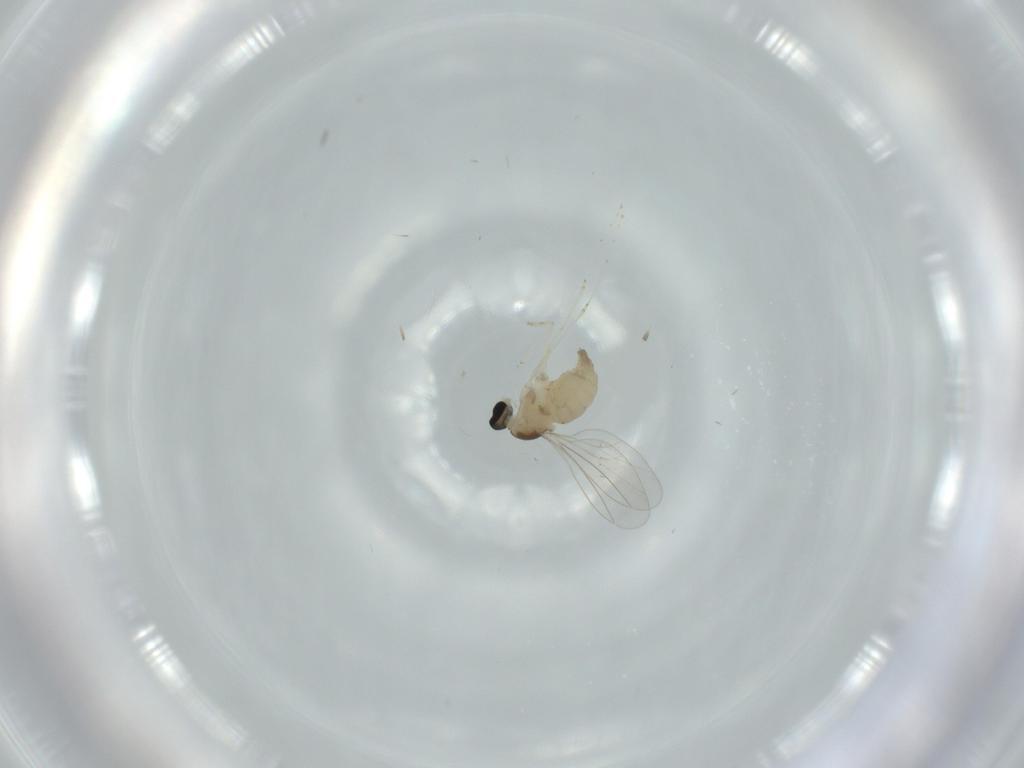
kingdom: Animalia
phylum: Arthropoda
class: Insecta
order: Diptera
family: Cecidomyiidae
